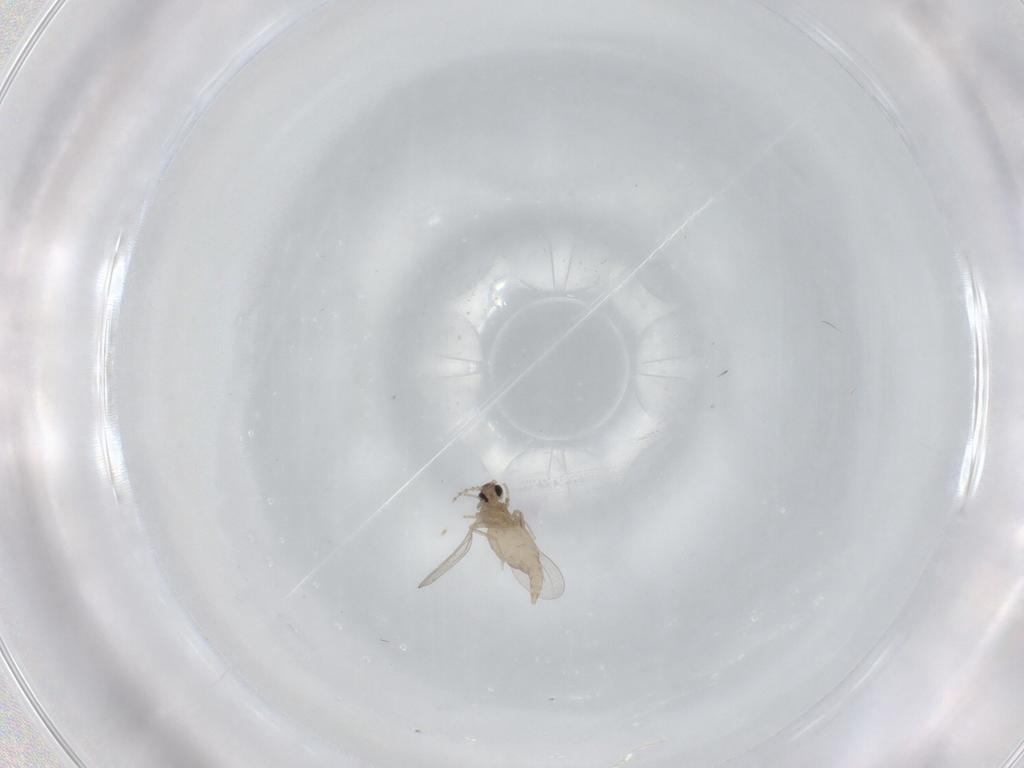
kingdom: Animalia
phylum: Arthropoda
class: Insecta
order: Diptera
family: Cecidomyiidae
